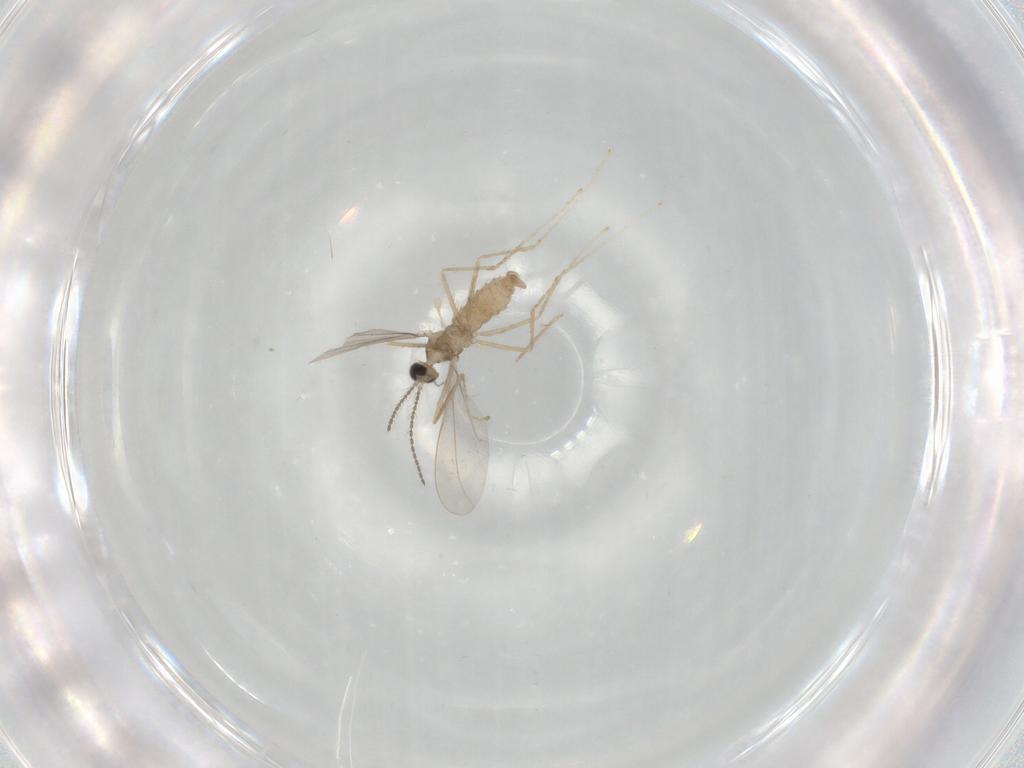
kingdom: Animalia
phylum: Arthropoda
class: Insecta
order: Diptera
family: Cecidomyiidae
